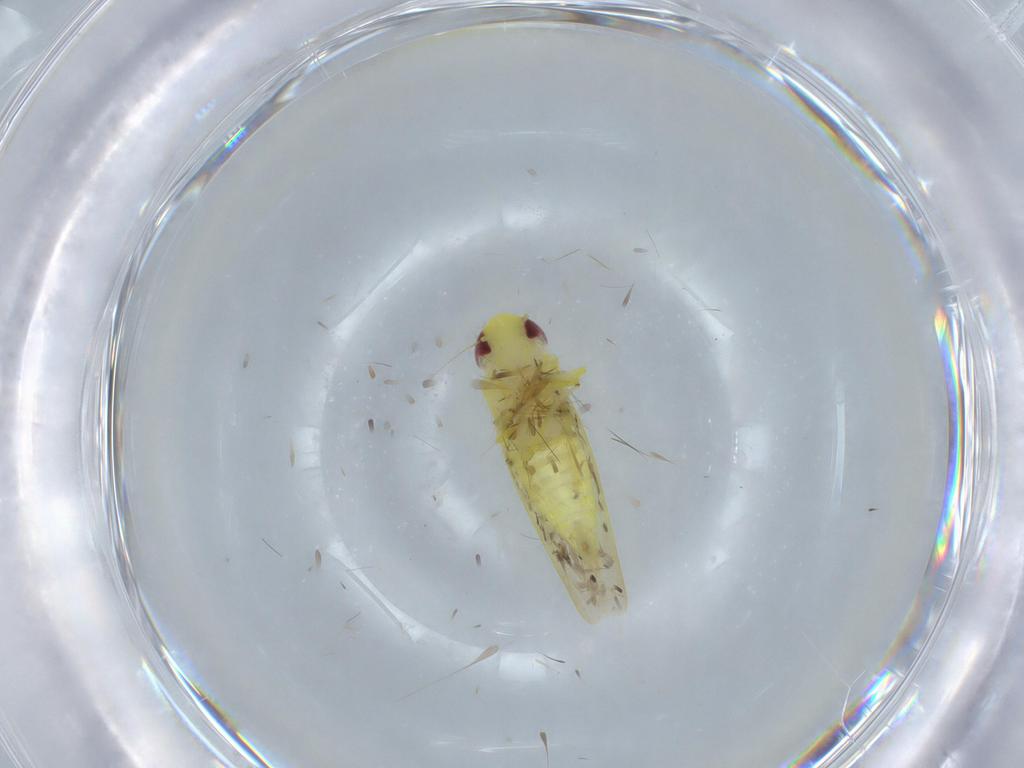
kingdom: Animalia
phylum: Arthropoda
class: Insecta
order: Hemiptera
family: Cicadellidae
